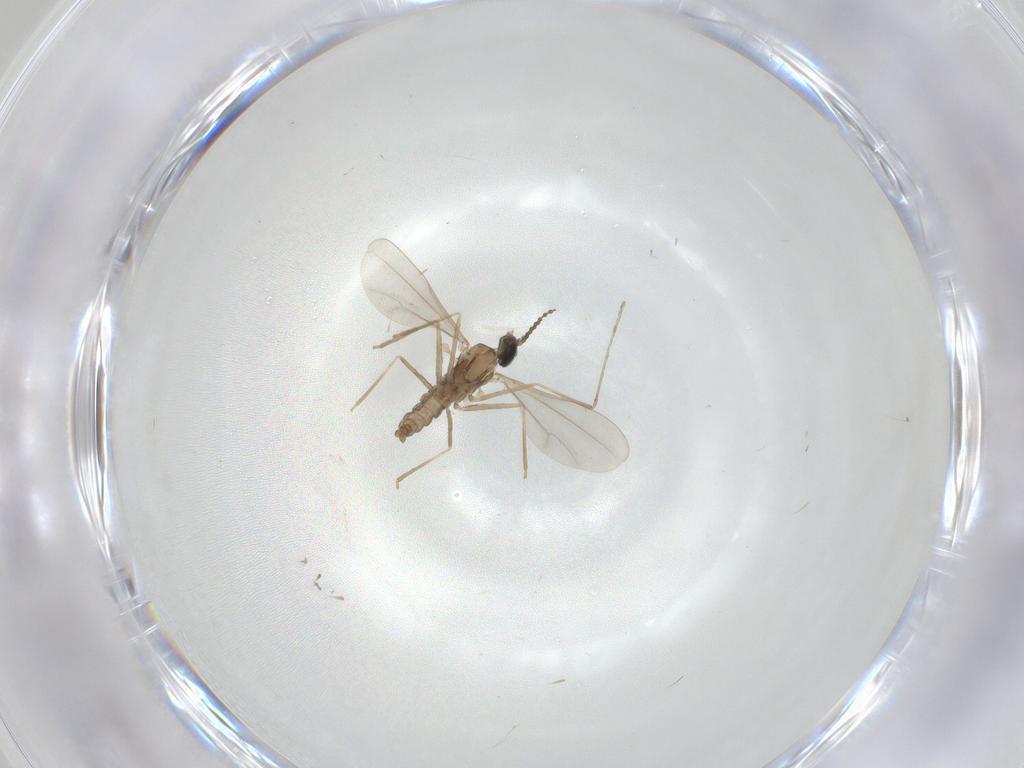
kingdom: Animalia
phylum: Arthropoda
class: Insecta
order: Diptera
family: Cecidomyiidae
